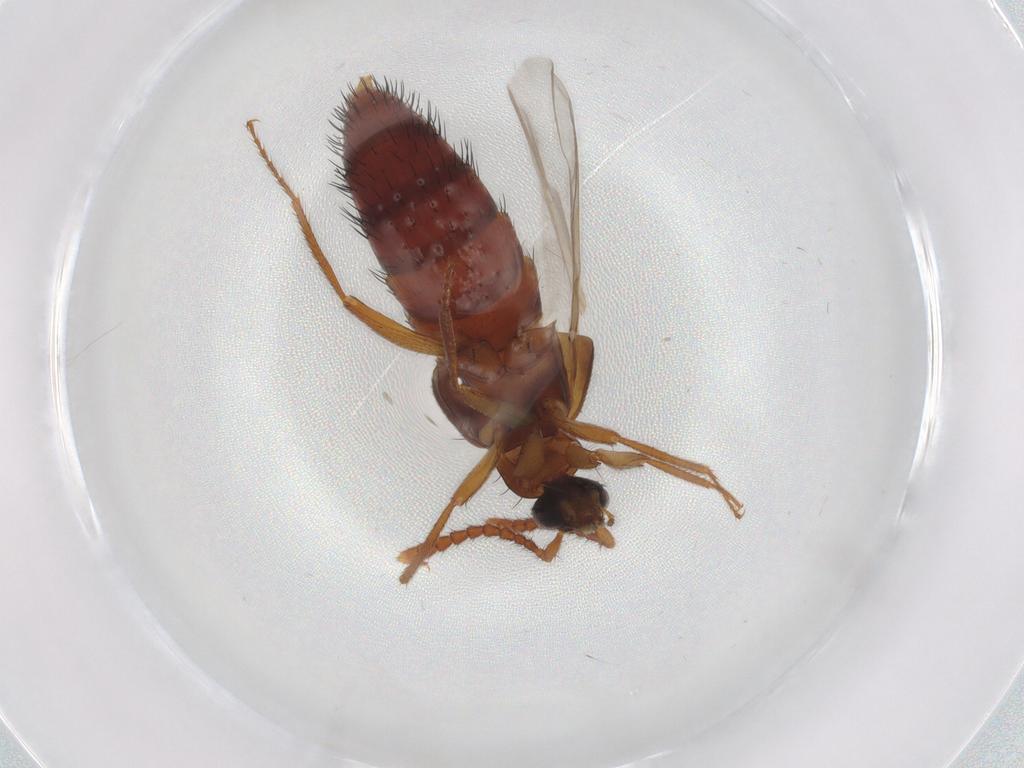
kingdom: Animalia
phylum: Arthropoda
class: Insecta
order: Coleoptera
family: Staphylinidae
